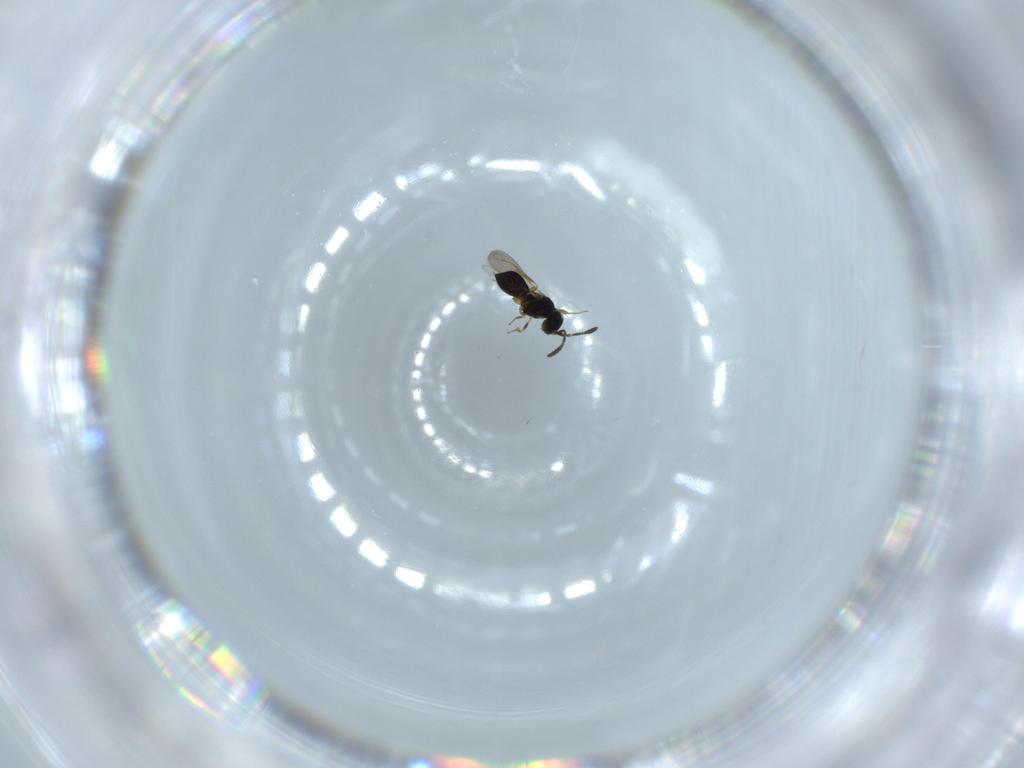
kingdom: Animalia
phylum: Arthropoda
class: Insecta
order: Hymenoptera
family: Scelionidae
